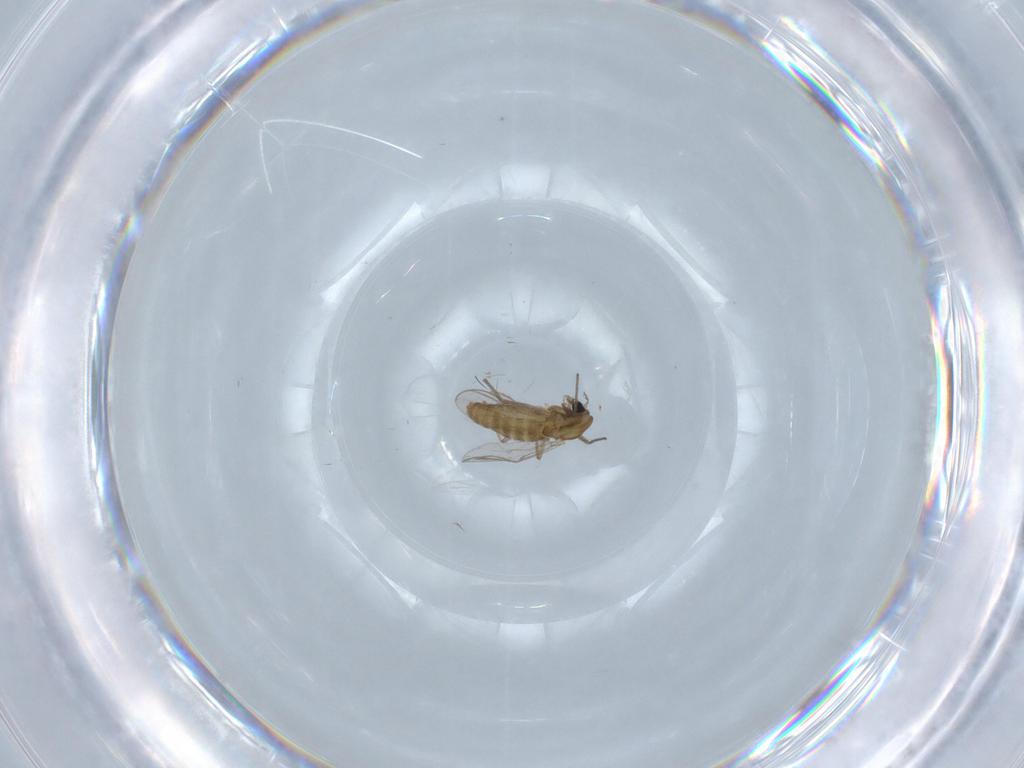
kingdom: Animalia
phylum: Arthropoda
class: Insecta
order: Diptera
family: Chironomidae
